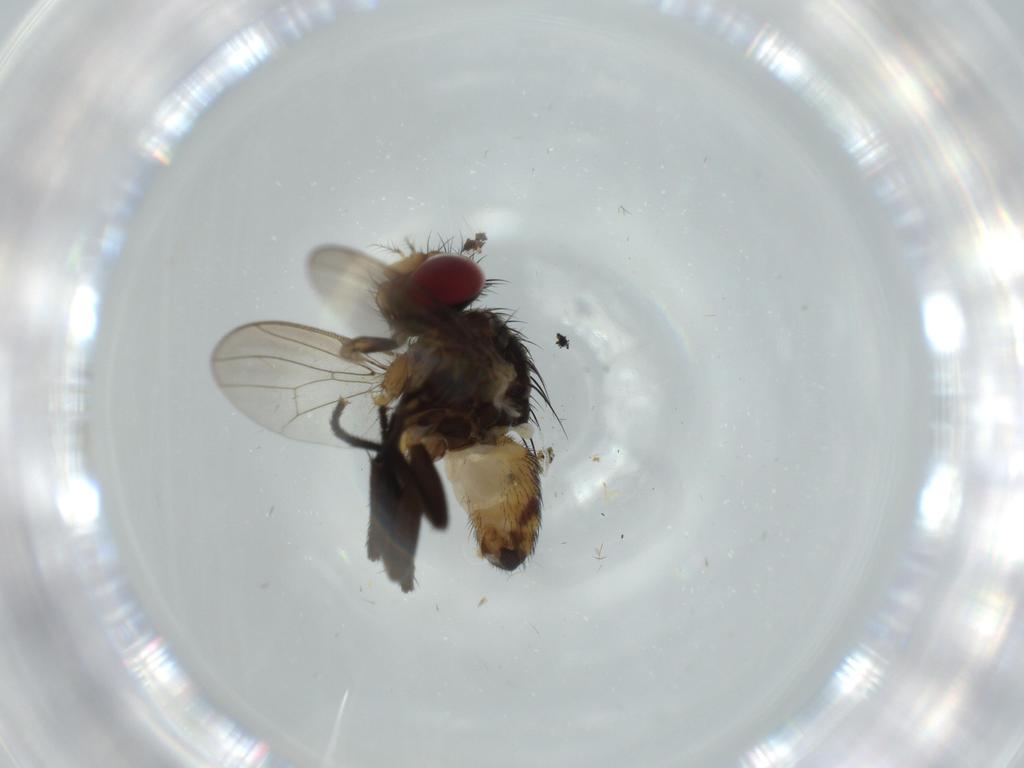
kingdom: Animalia
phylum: Arthropoda
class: Insecta
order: Diptera
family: Anthomyiidae
